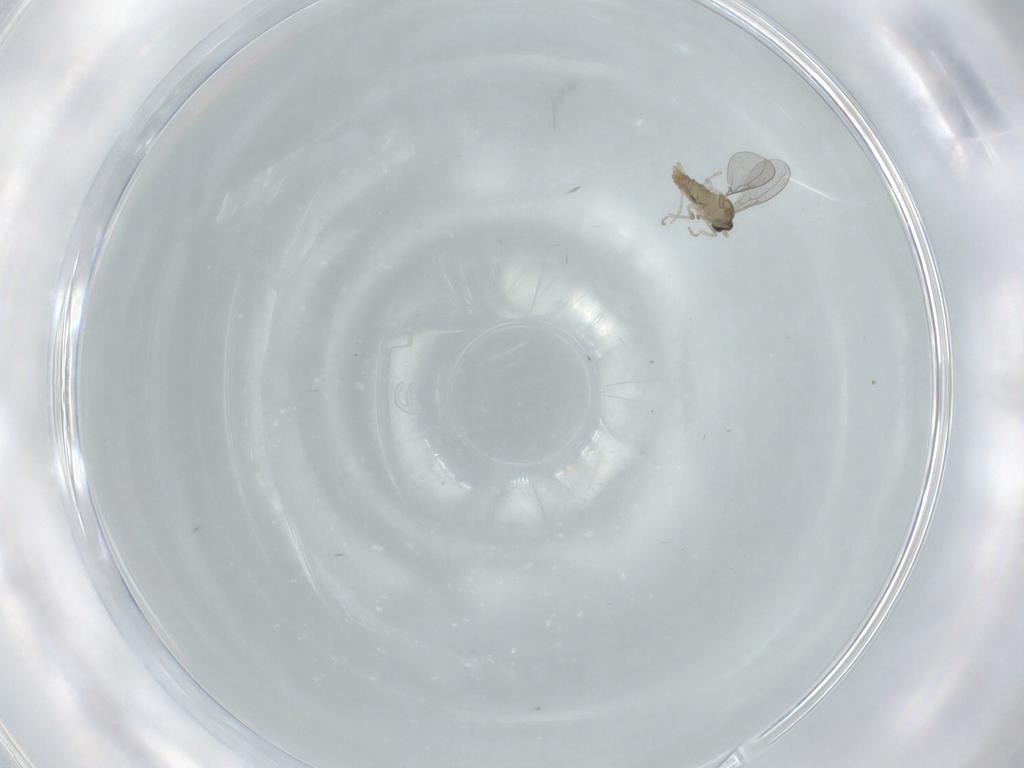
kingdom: Animalia
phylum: Arthropoda
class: Insecta
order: Diptera
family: Cecidomyiidae
